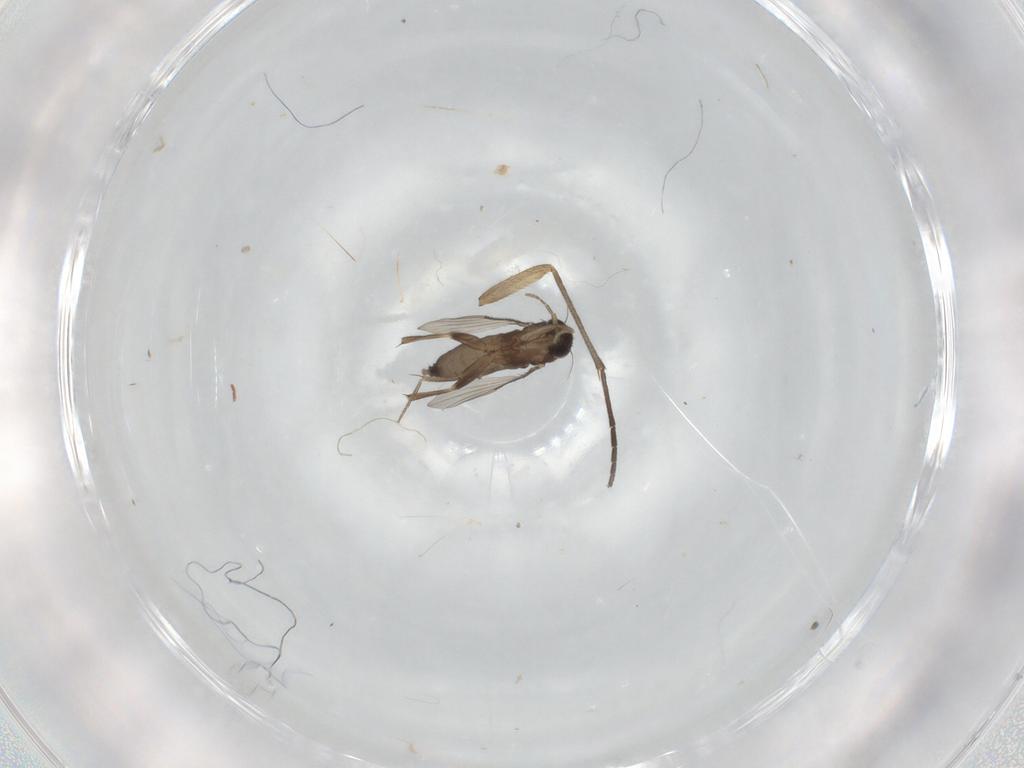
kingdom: Animalia
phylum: Arthropoda
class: Insecta
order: Diptera
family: Sciaridae
